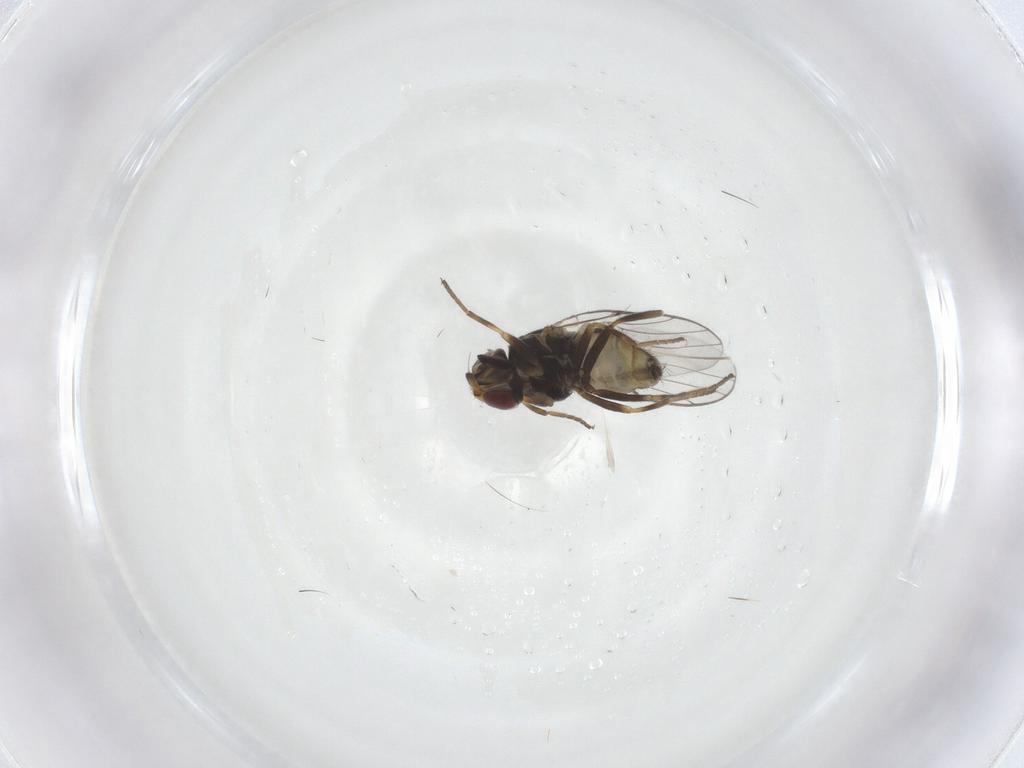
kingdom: Animalia
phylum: Arthropoda
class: Insecta
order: Diptera
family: Chloropidae
